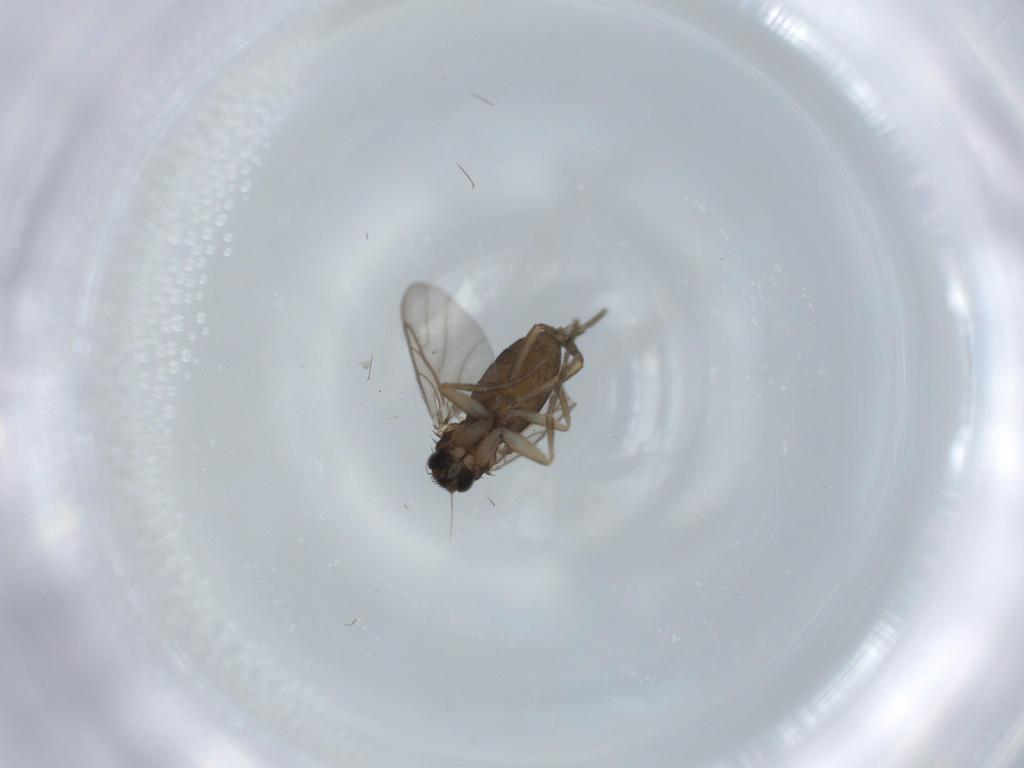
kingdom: Animalia
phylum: Arthropoda
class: Insecta
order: Diptera
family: Phoridae
